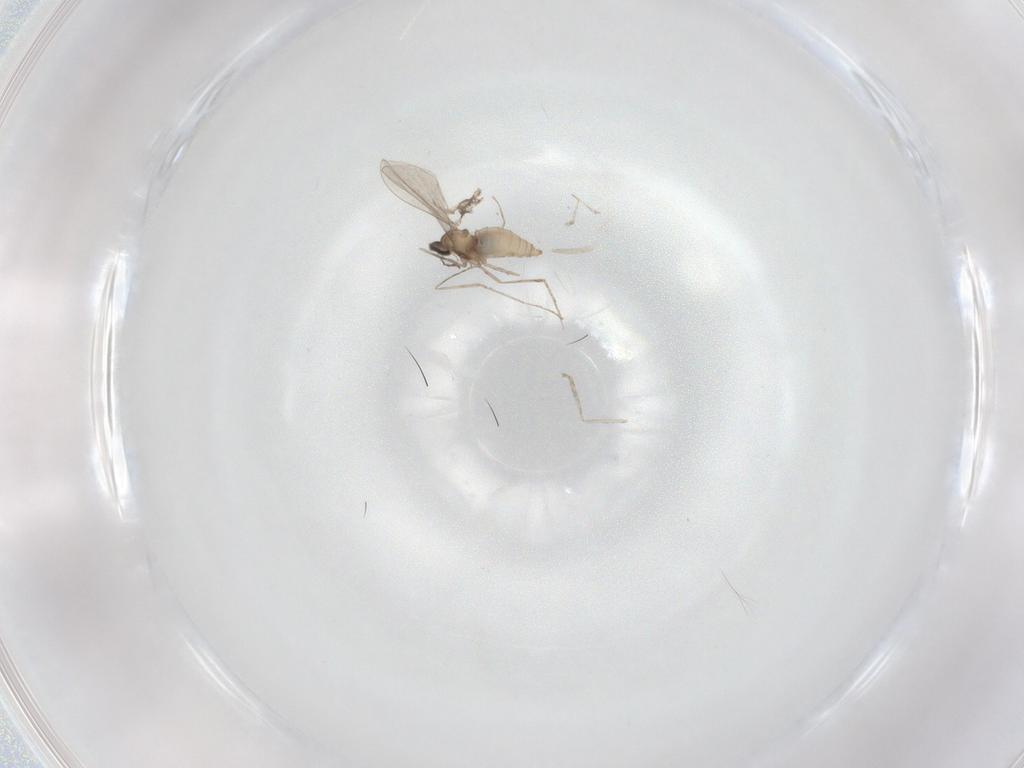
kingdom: Animalia
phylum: Arthropoda
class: Insecta
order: Diptera
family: Cecidomyiidae
